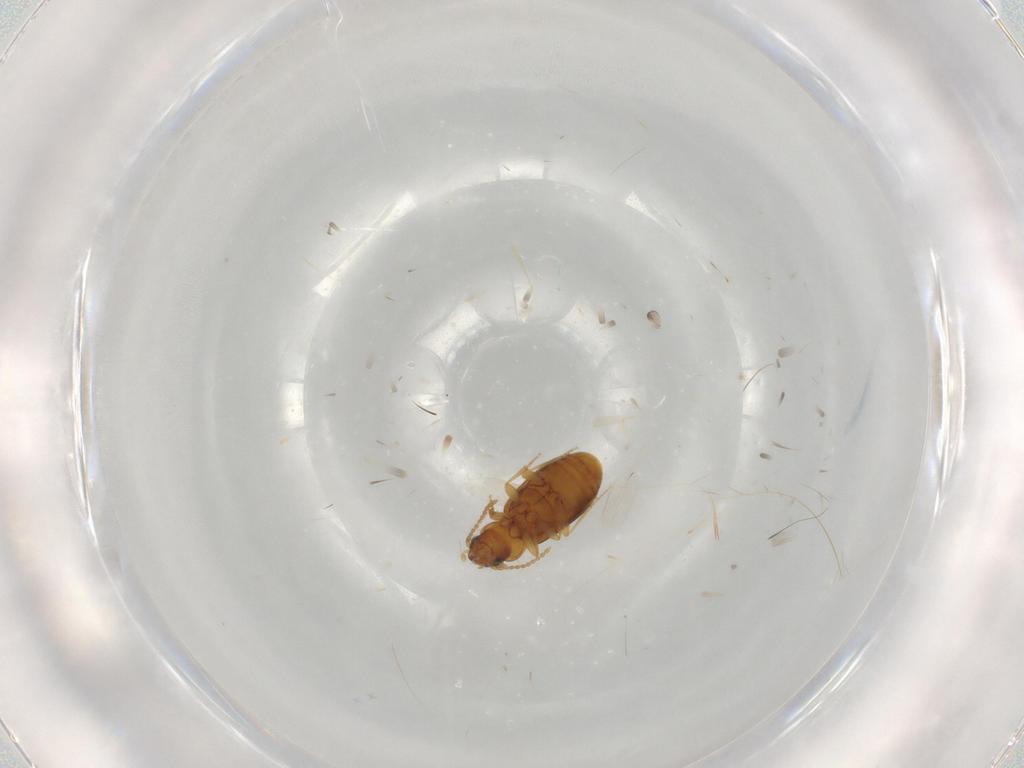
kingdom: Animalia
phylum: Arthropoda
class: Insecta
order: Coleoptera
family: Carabidae
